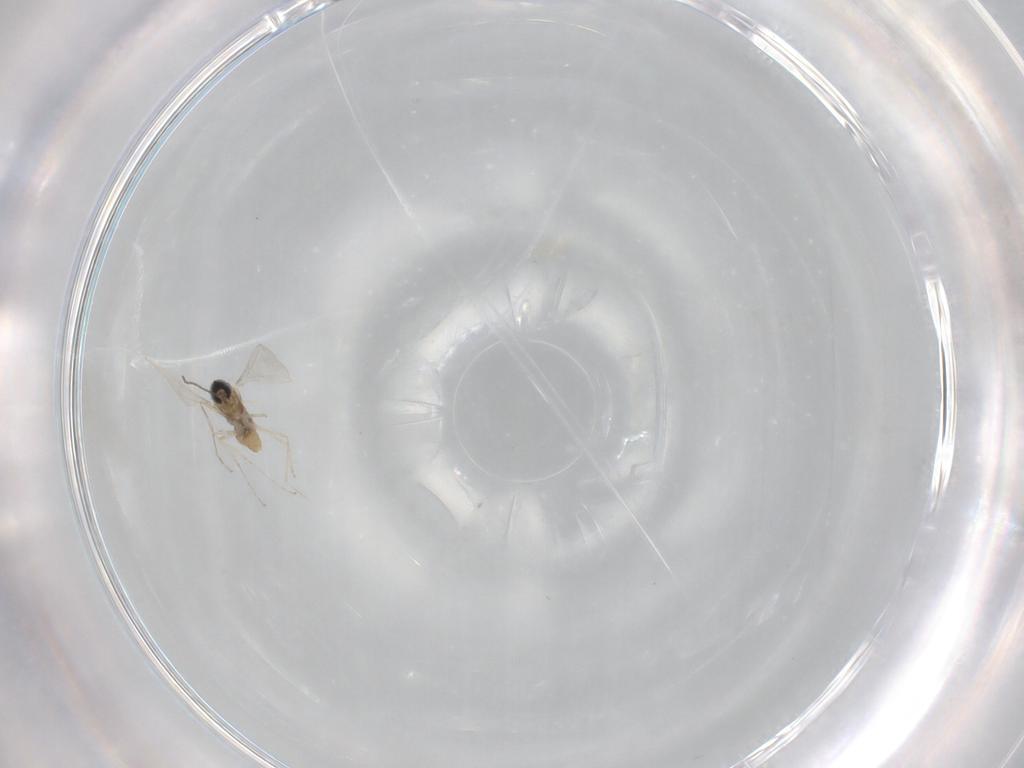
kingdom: Animalia
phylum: Arthropoda
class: Insecta
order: Diptera
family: Cecidomyiidae
